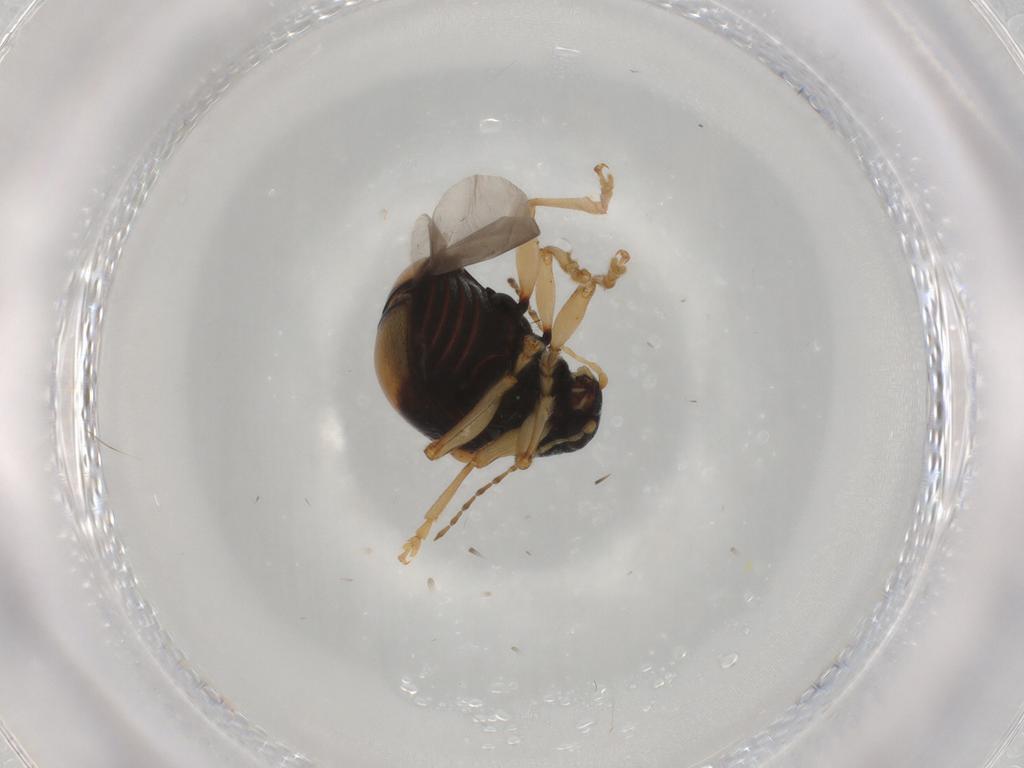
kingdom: Animalia
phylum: Arthropoda
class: Insecta
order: Coleoptera
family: Chrysomelidae
